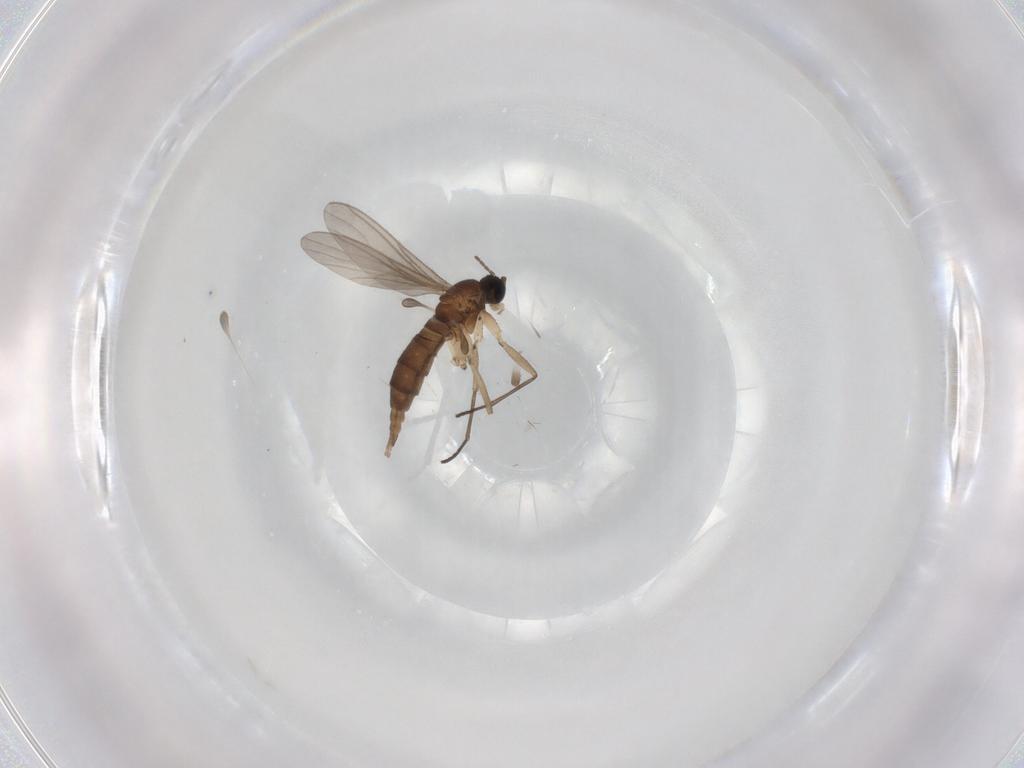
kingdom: Animalia
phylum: Arthropoda
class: Insecta
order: Diptera
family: Sciaridae
